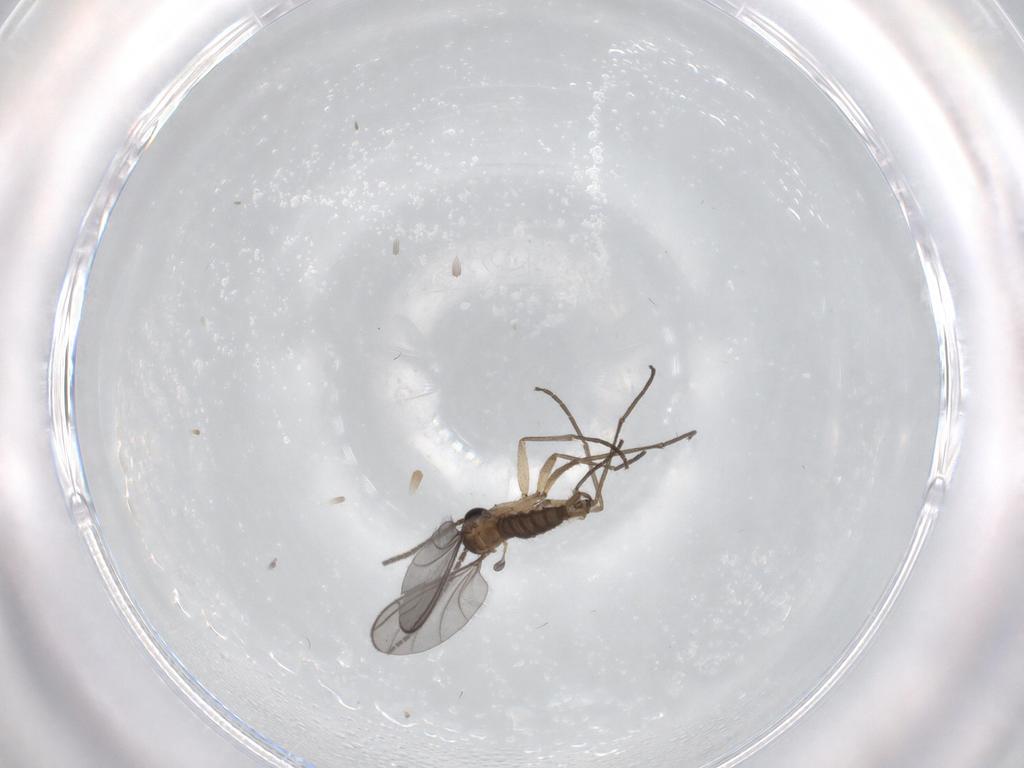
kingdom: Animalia
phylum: Arthropoda
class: Insecta
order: Diptera
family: Sciaridae
